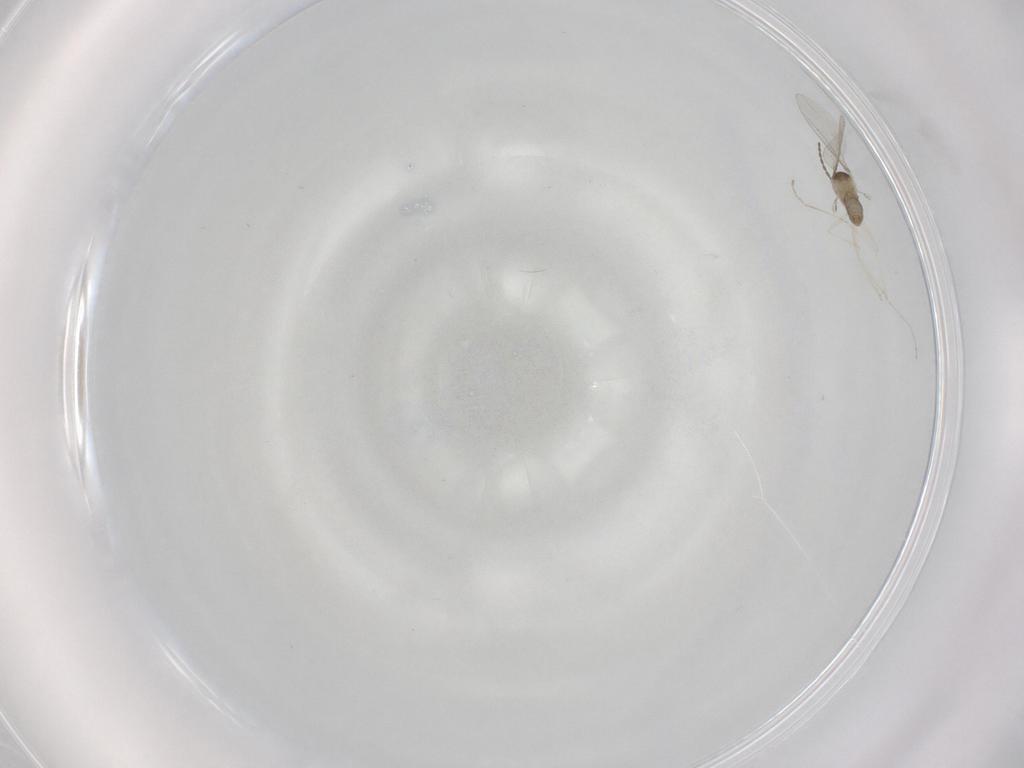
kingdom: Animalia
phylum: Arthropoda
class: Insecta
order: Diptera
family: Cecidomyiidae
